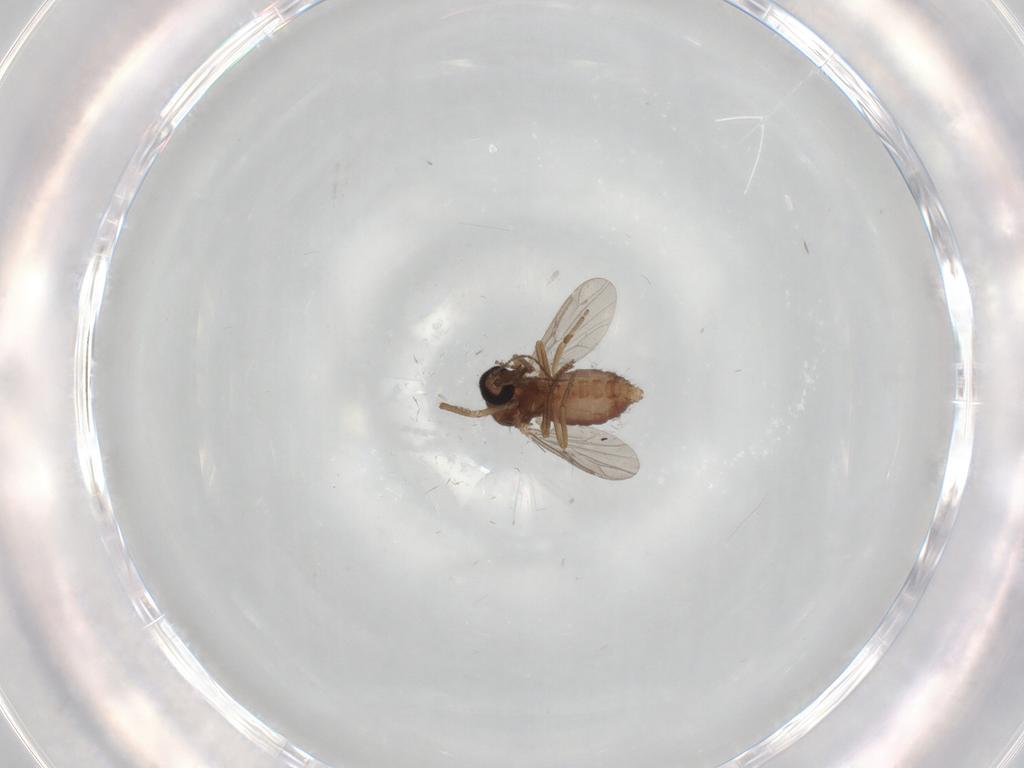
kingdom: Animalia
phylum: Arthropoda
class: Insecta
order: Diptera
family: Ceratopogonidae
